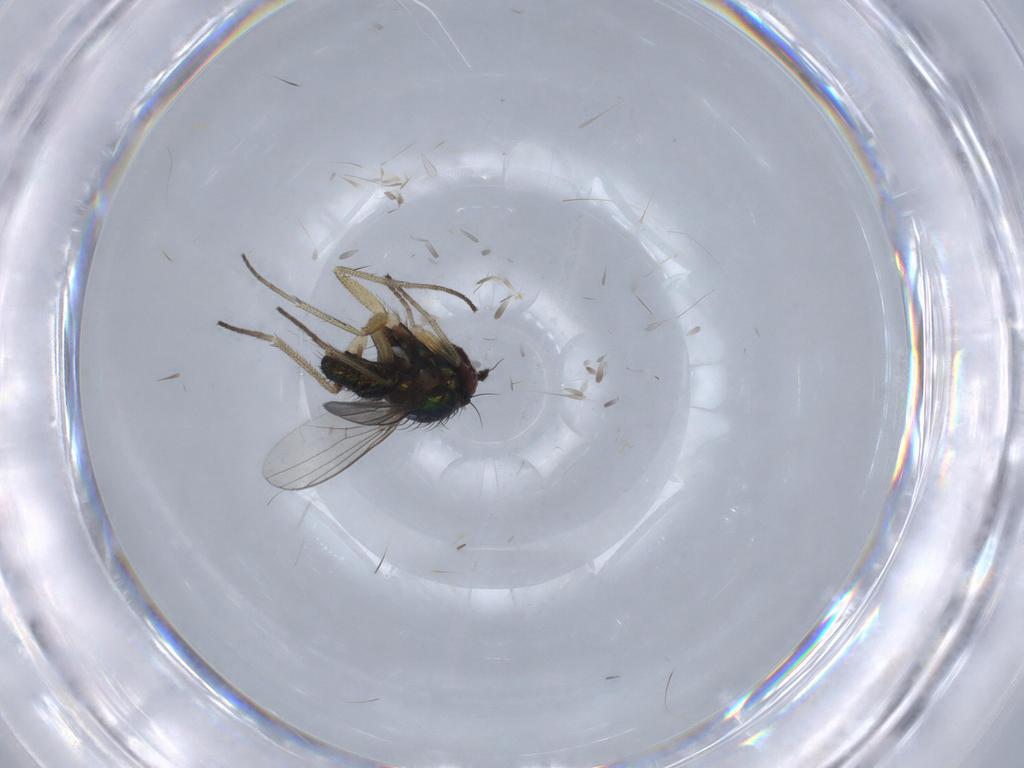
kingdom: Animalia
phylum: Arthropoda
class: Insecta
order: Diptera
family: Dolichopodidae
